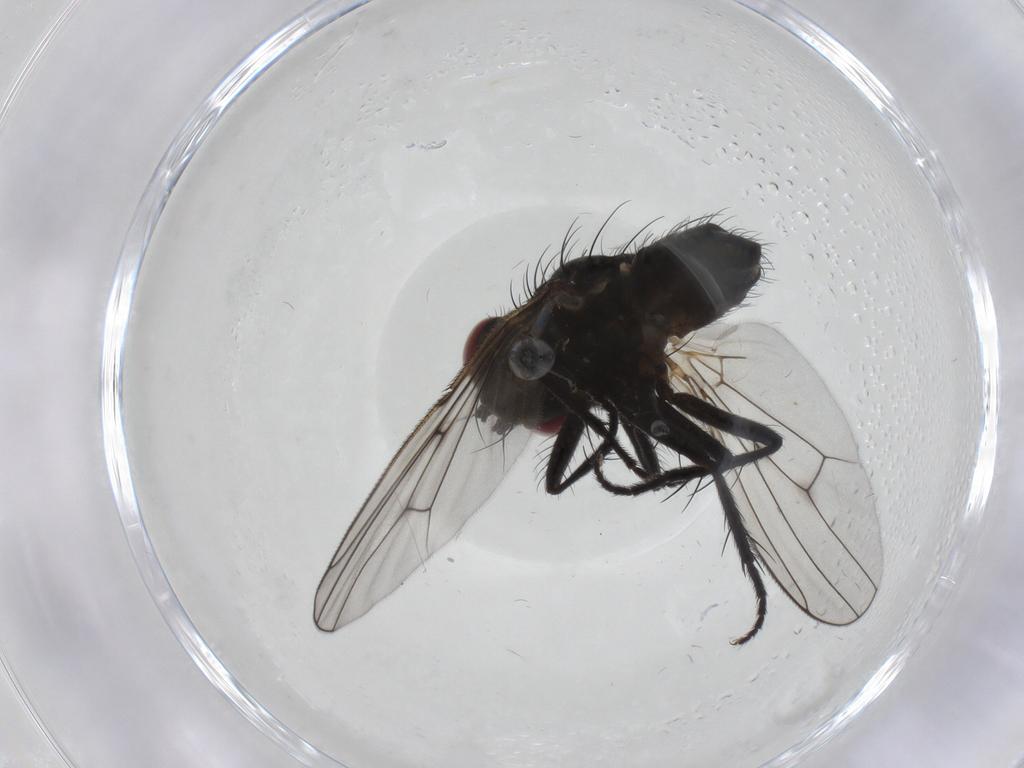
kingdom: Animalia
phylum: Arthropoda
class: Insecta
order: Diptera
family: Muscidae
